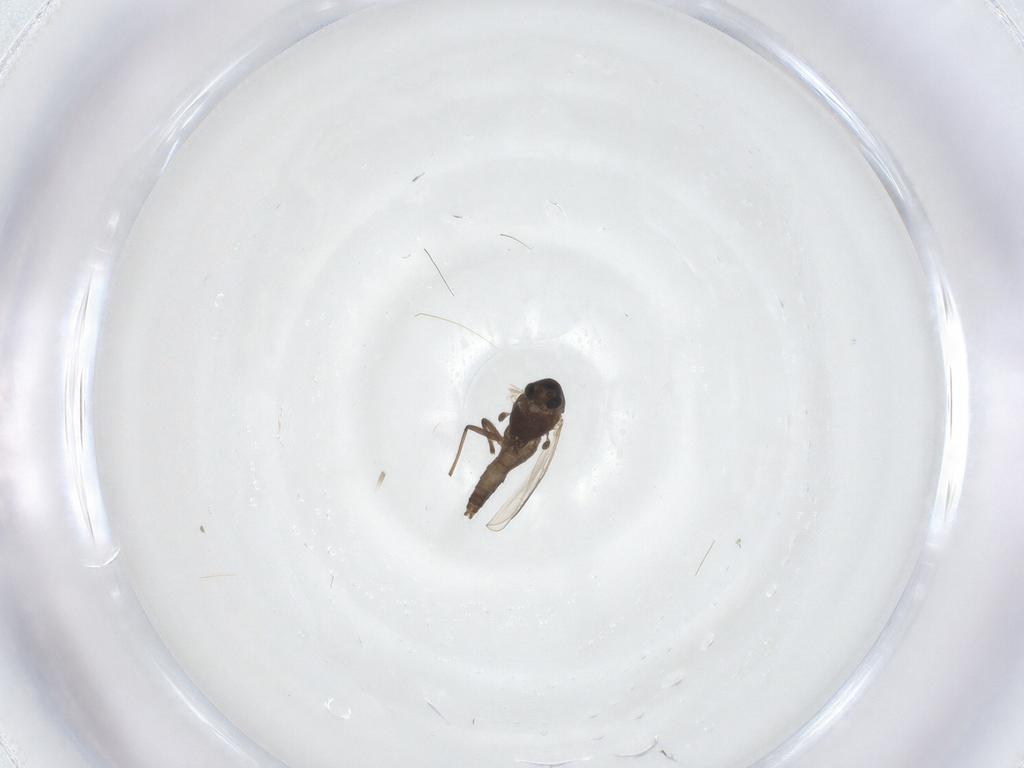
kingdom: Animalia
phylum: Arthropoda
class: Insecta
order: Diptera
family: Chironomidae
